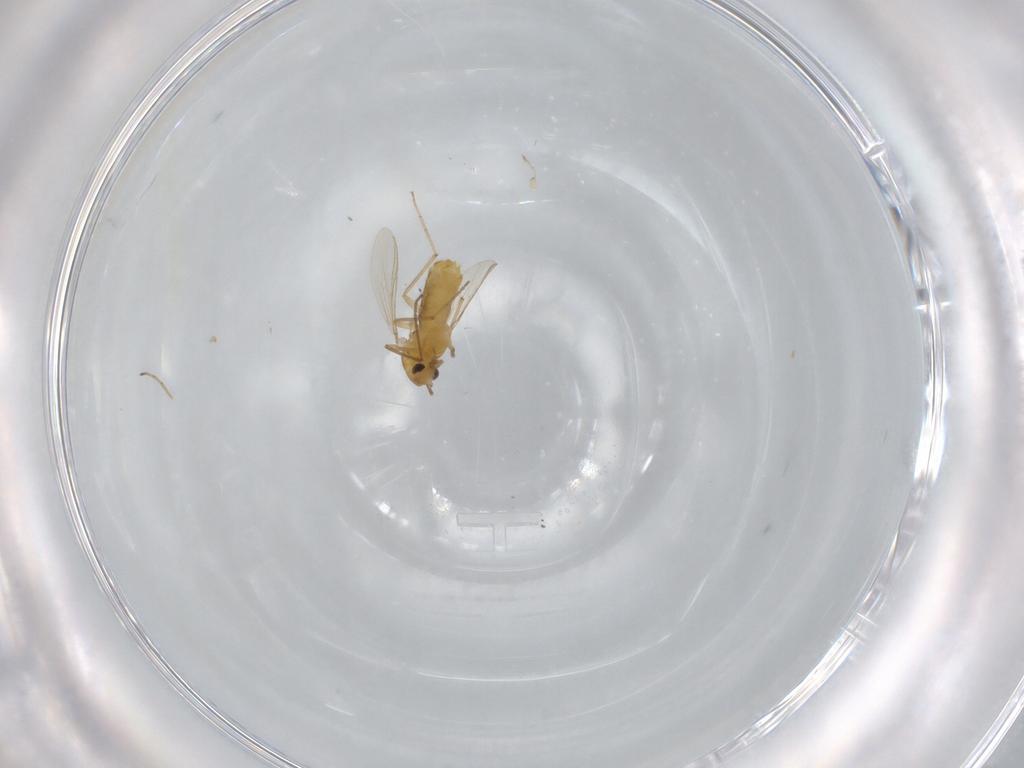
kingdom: Animalia
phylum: Arthropoda
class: Insecta
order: Diptera
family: Chironomidae
